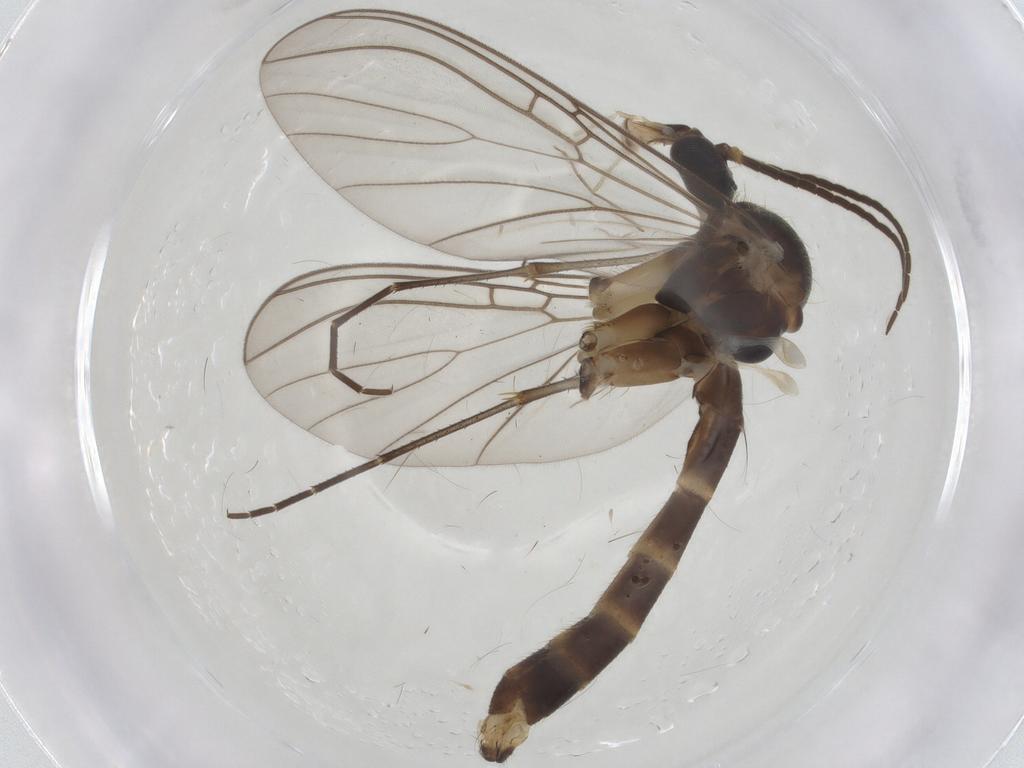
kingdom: Animalia
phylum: Arthropoda
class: Insecta
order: Diptera
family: Mycetophilidae
